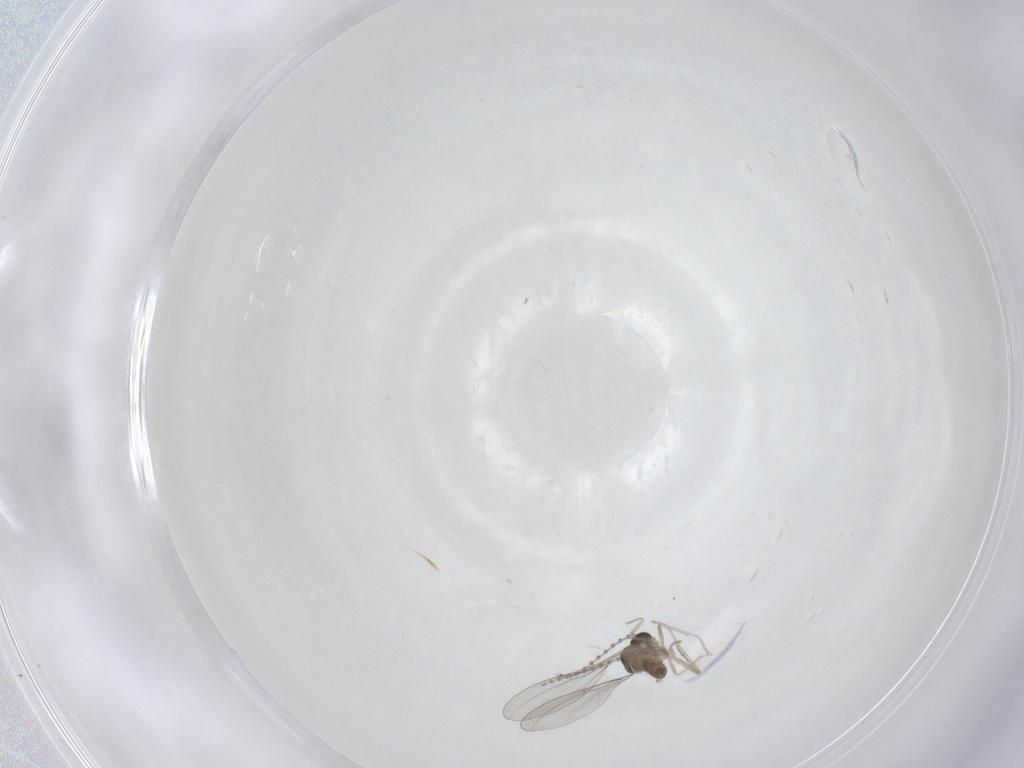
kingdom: Animalia
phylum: Arthropoda
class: Insecta
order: Diptera
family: Cecidomyiidae
